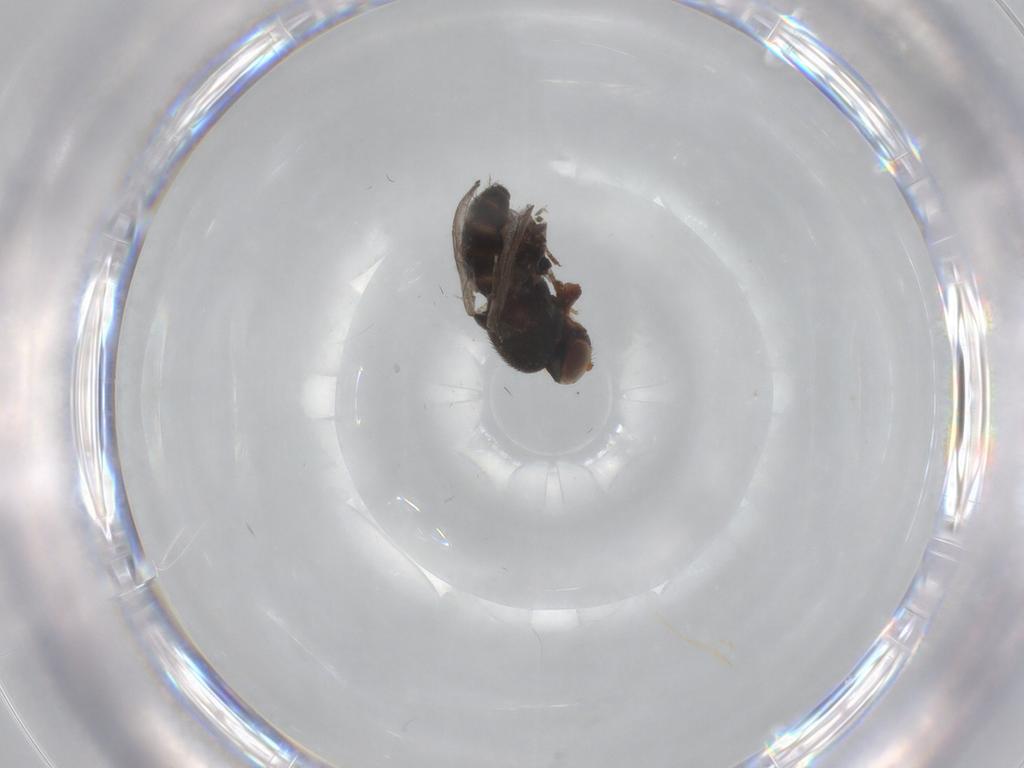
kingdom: Animalia
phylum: Arthropoda
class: Insecta
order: Diptera
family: Ephydridae
